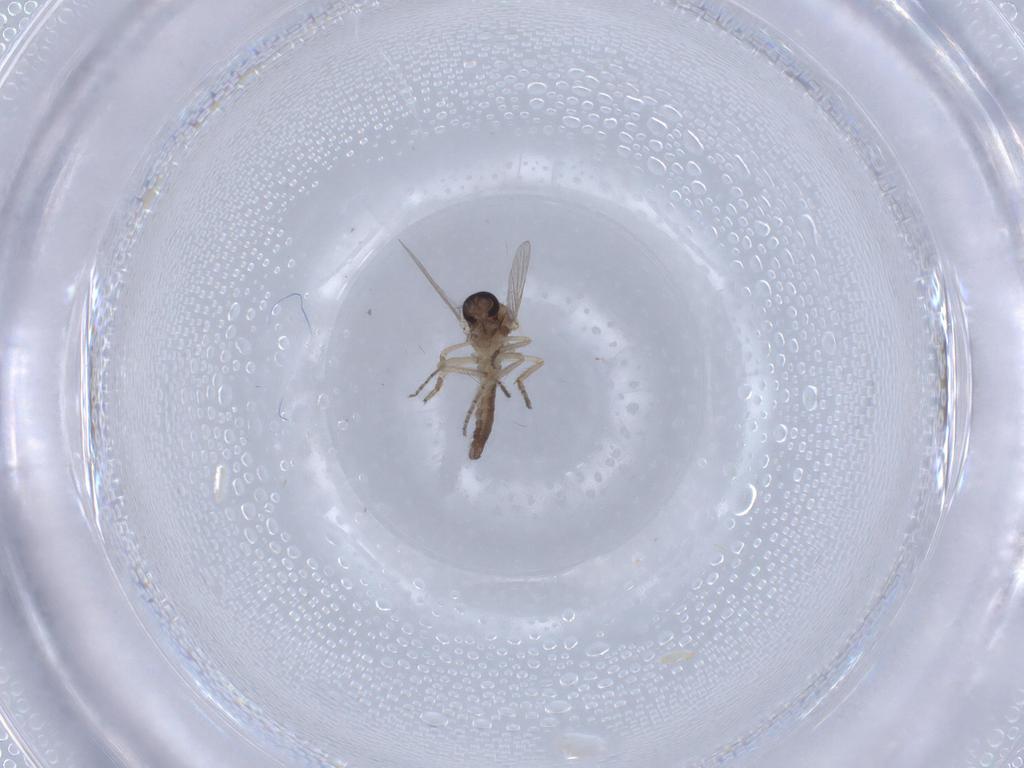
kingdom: Animalia
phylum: Arthropoda
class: Insecta
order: Diptera
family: Ceratopogonidae
